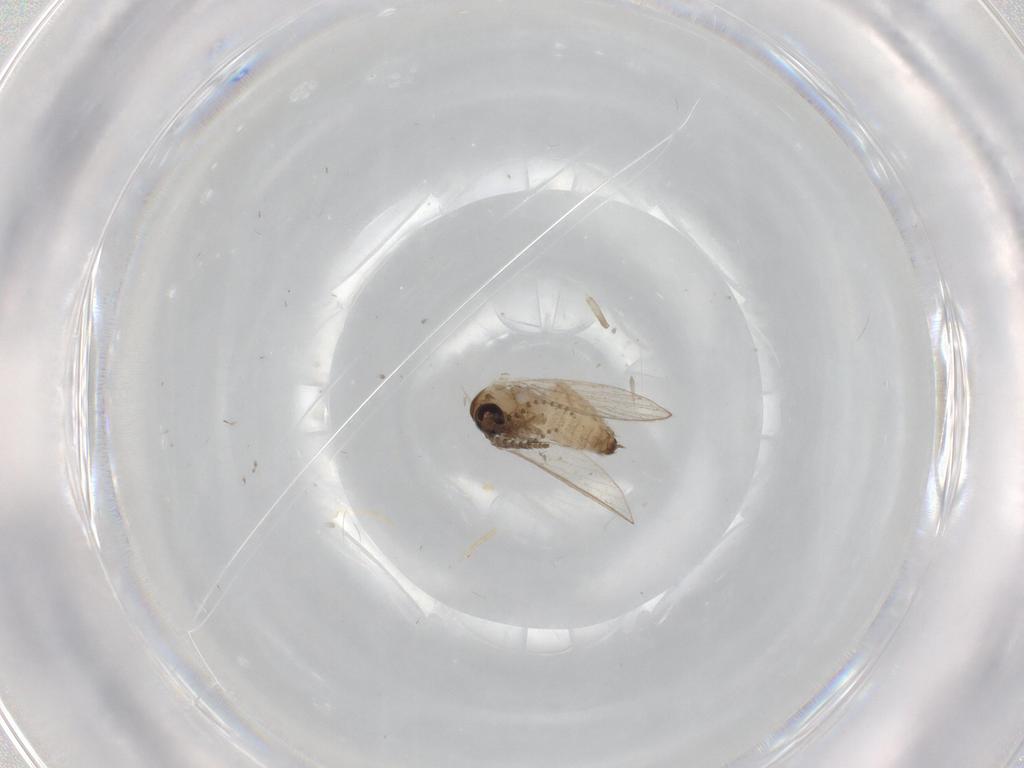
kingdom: Animalia
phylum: Arthropoda
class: Insecta
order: Diptera
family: Psychodidae
